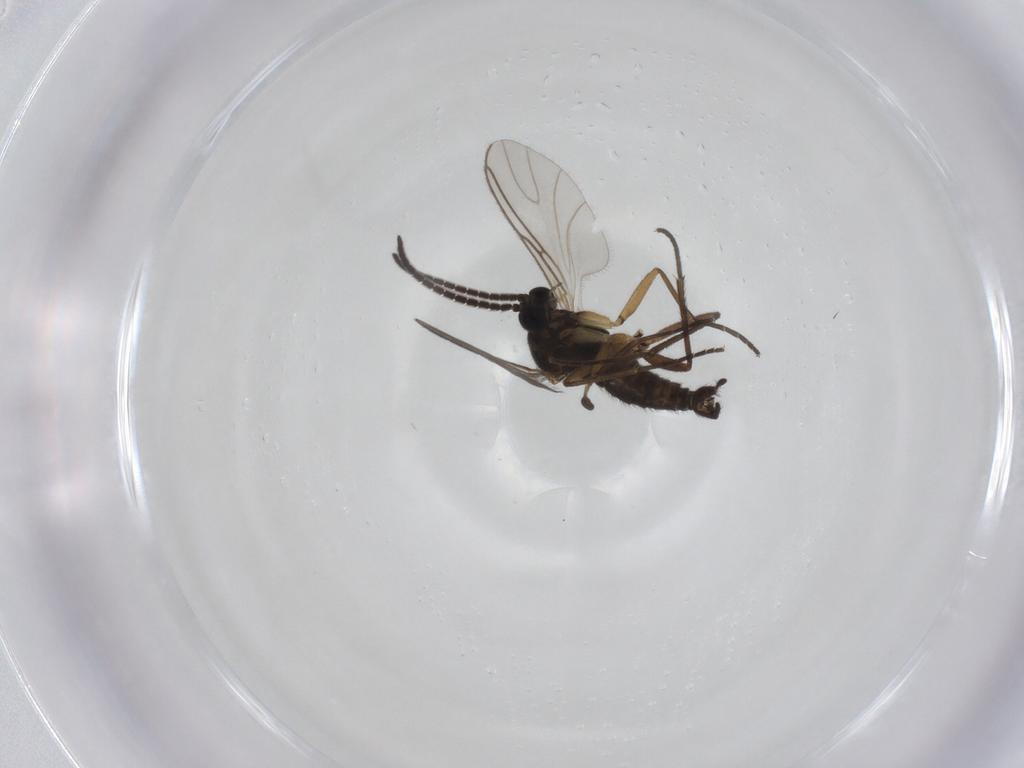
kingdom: Animalia
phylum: Arthropoda
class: Insecta
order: Diptera
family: Sciaridae
